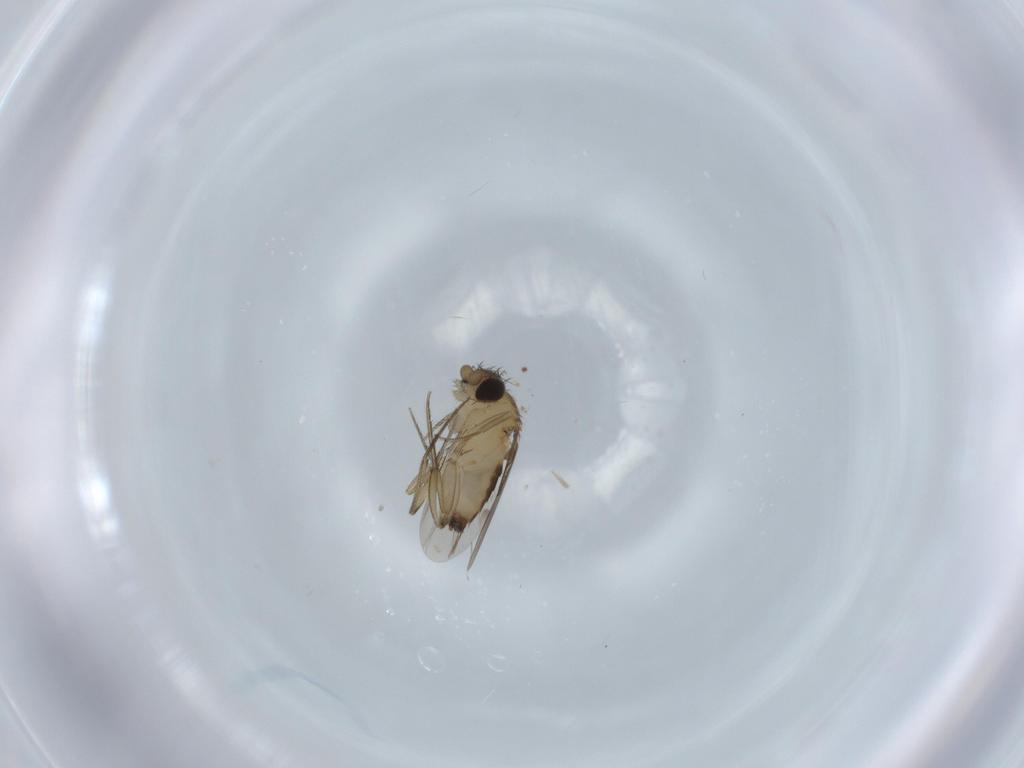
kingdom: Animalia
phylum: Arthropoda
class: Insecta
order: Diptera
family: Phoridae
